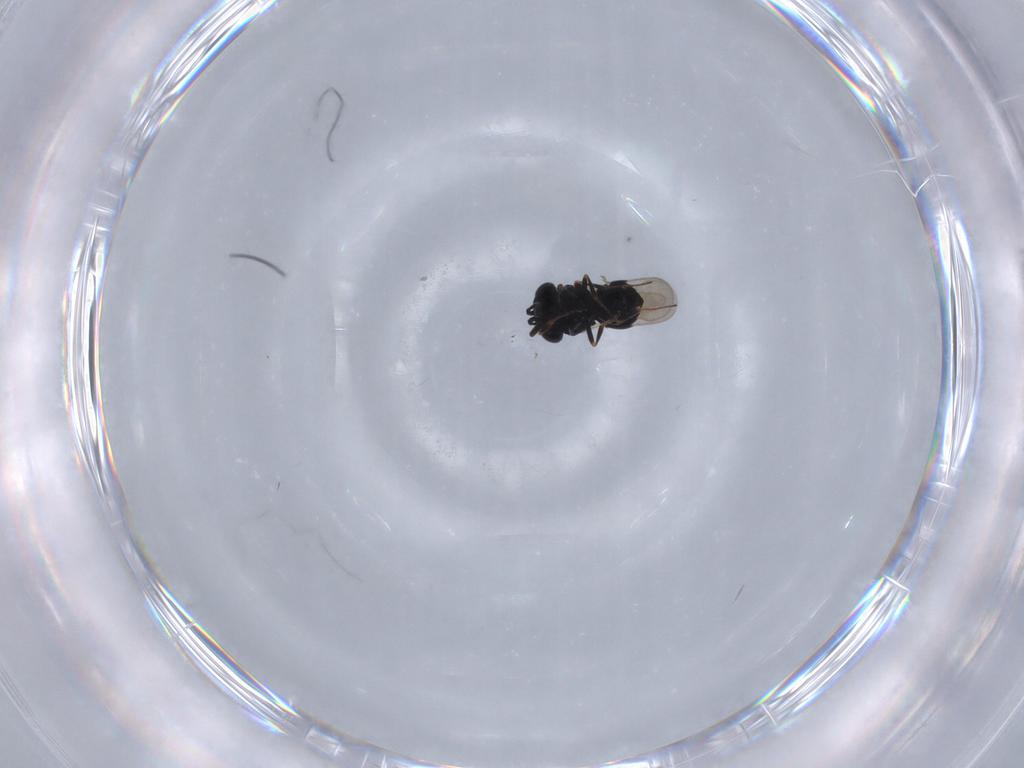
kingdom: Animalia
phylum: Arthropoda
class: Insecta
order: Hymenoptera
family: Scelionidae
